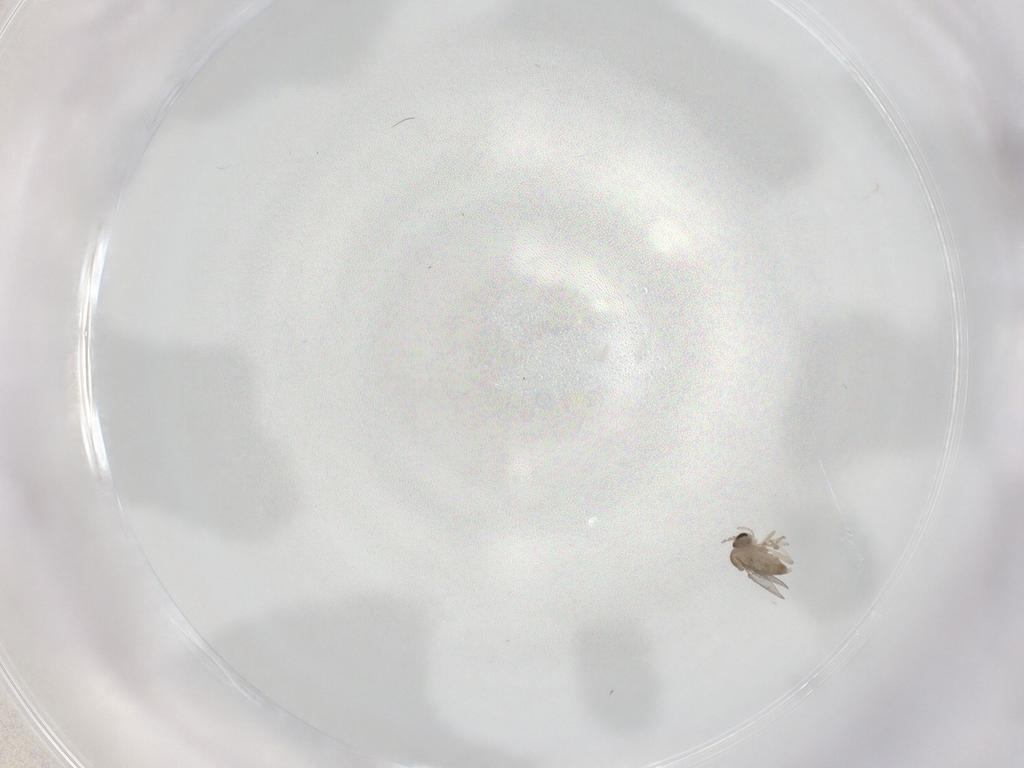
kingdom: Animalia
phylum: Arthropoda
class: Insecta
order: Diptera
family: Cecidomyiidae
